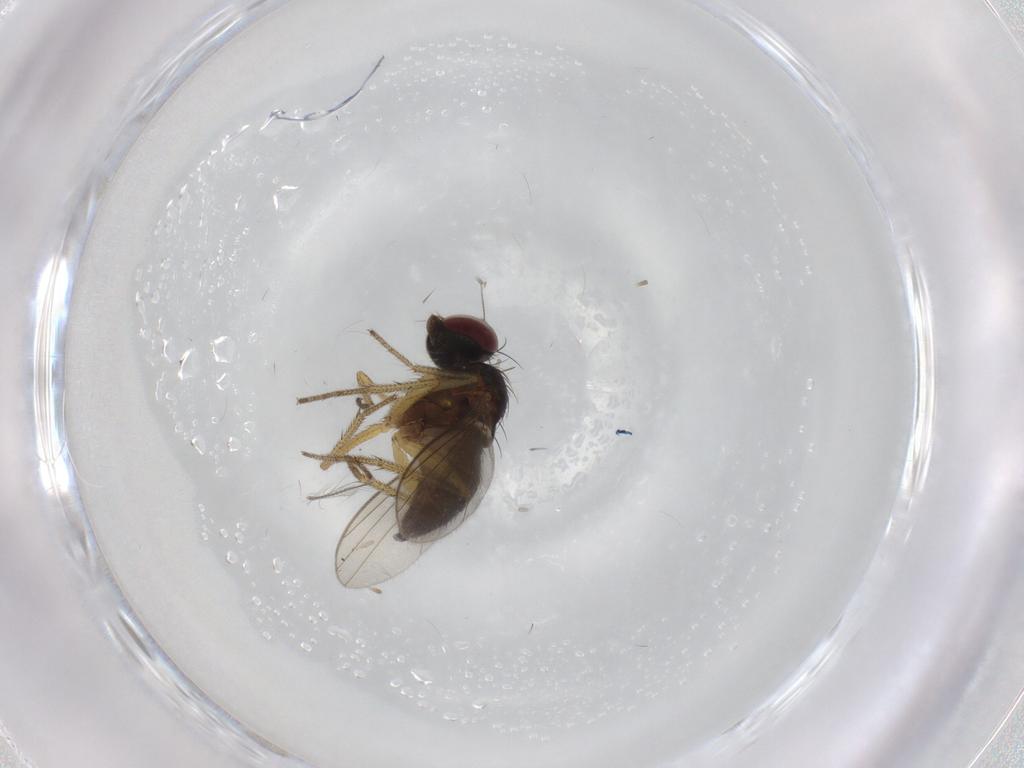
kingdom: Animalia
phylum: Arthropoda
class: Insecta
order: Diptera
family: Dolichopodidae
